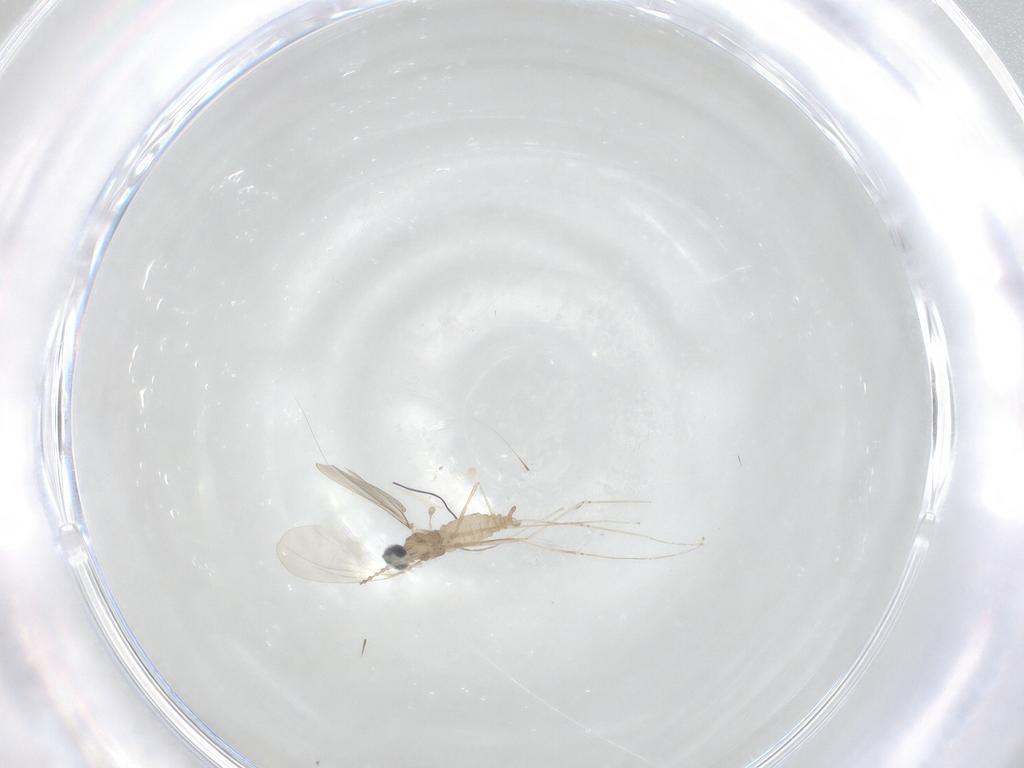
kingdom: Animalia
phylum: Arthropoda
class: Insecta
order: Diptera
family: Cecidomyiidae
